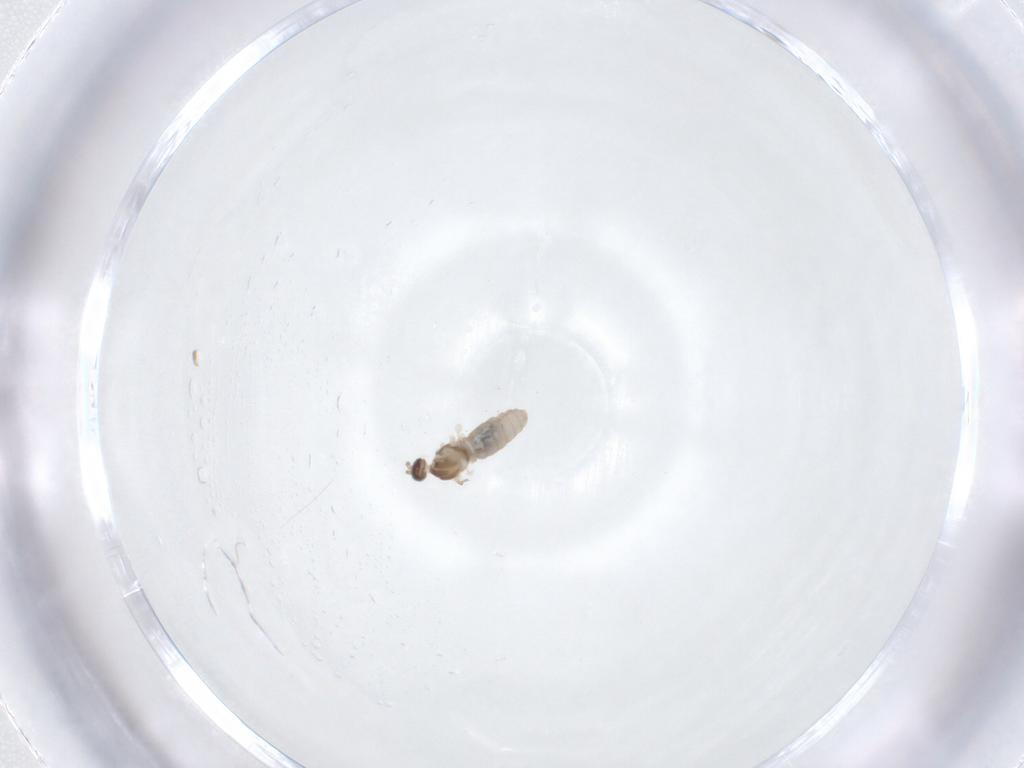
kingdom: Animalia
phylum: Arthropoda
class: Insecta
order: Diptera
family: Cecidomyiidae
